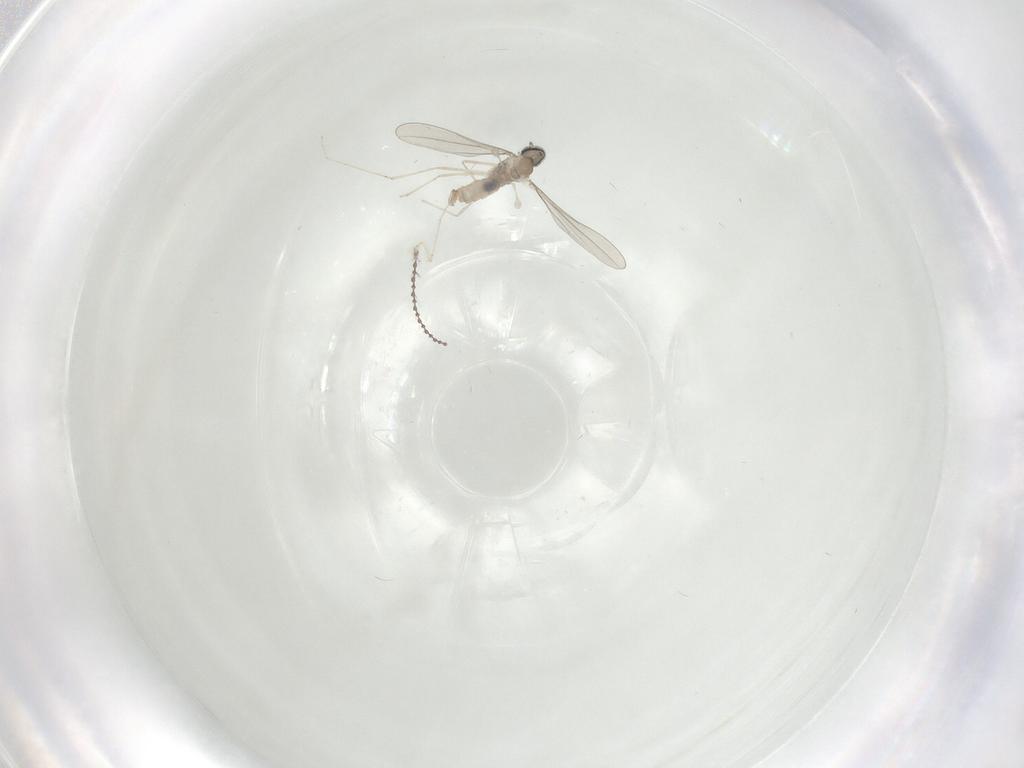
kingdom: Animalia
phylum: Arthropoda
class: Insecta
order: Diptera
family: Cecidomyiidae
